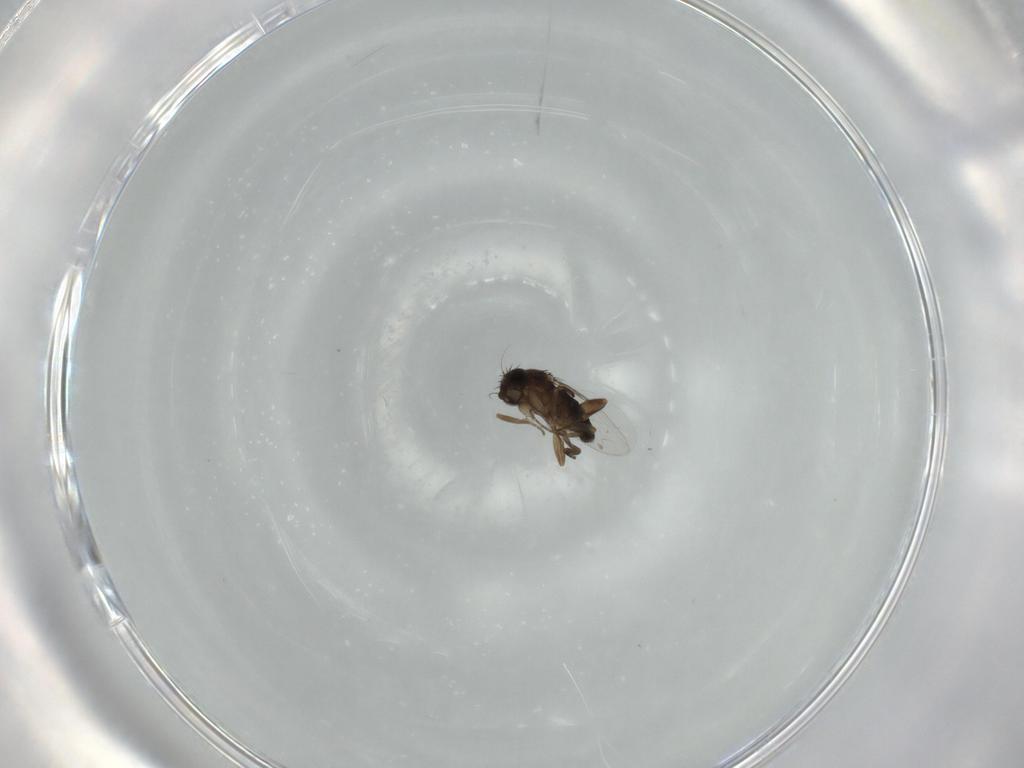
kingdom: Animalia
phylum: Arthropoda
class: Insecta
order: Diptera
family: Phoridae
